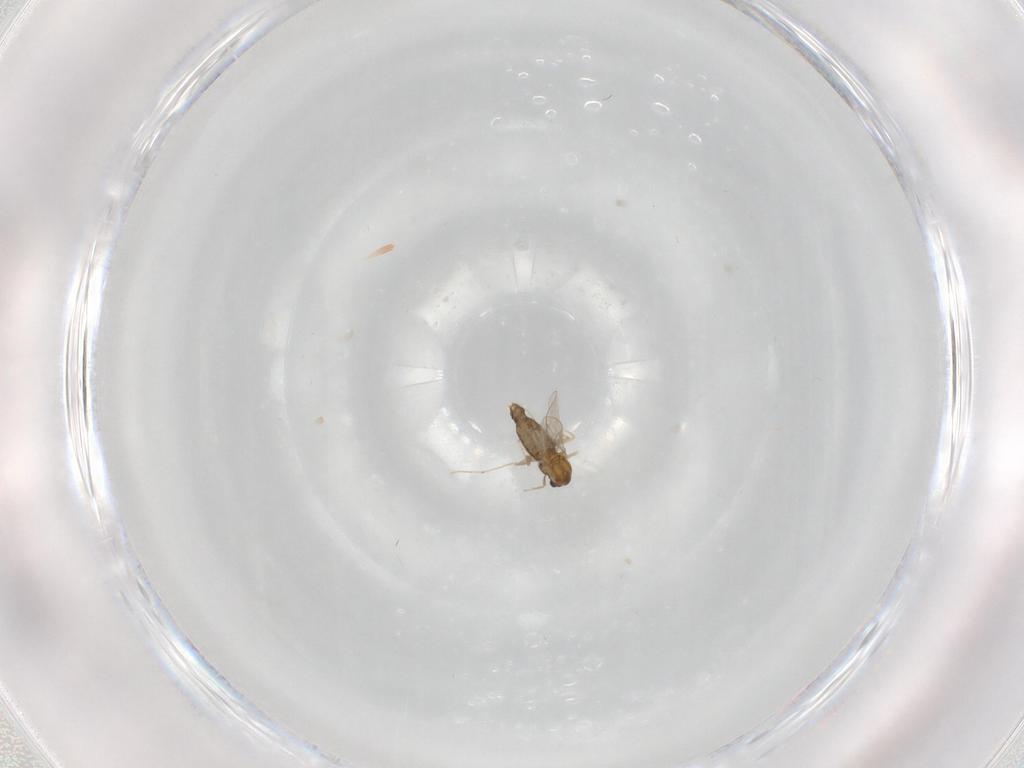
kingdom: Animalia
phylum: Arthropoda
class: Insecta
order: Diptera
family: Chironomidae
